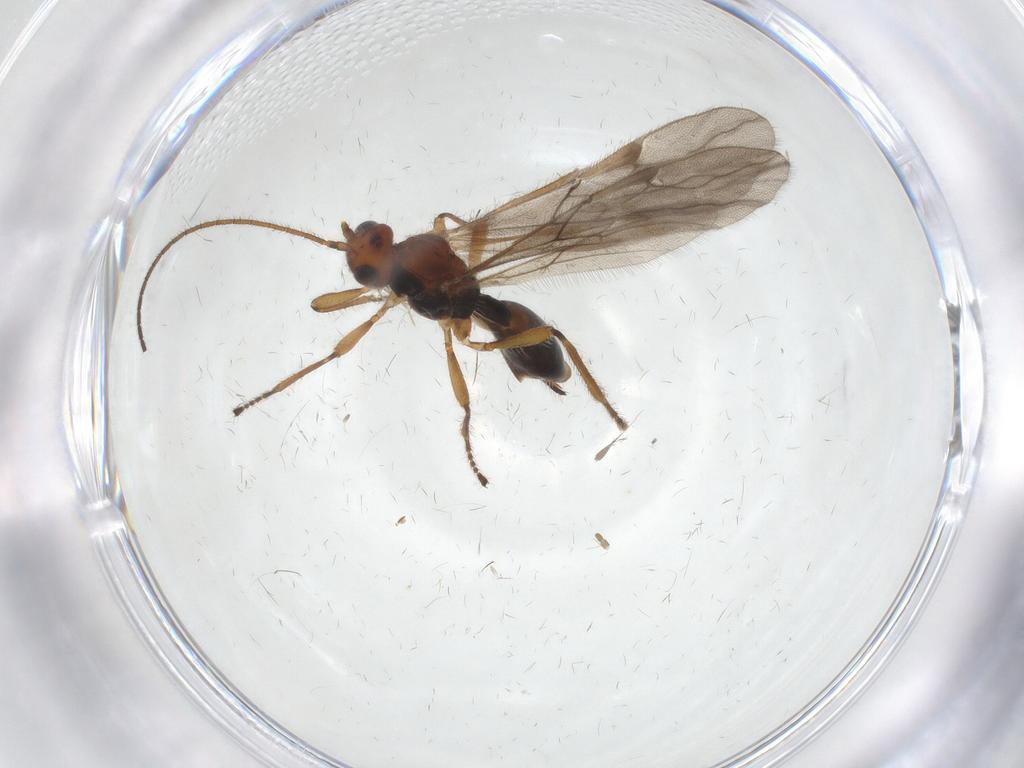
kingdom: Animalia
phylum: Arthropoda
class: Insecta
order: Hymenoptera
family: Braconidae
